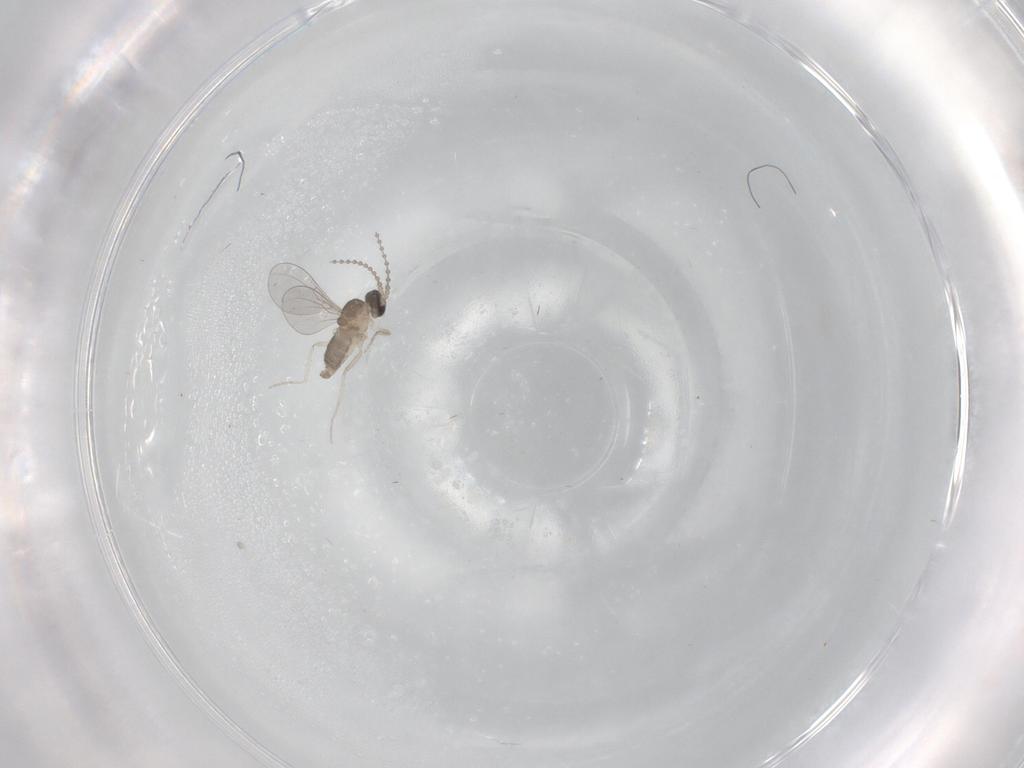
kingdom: Animalia
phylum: Arthropoda
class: Insecta
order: Diptera
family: Cecidomyiidae
